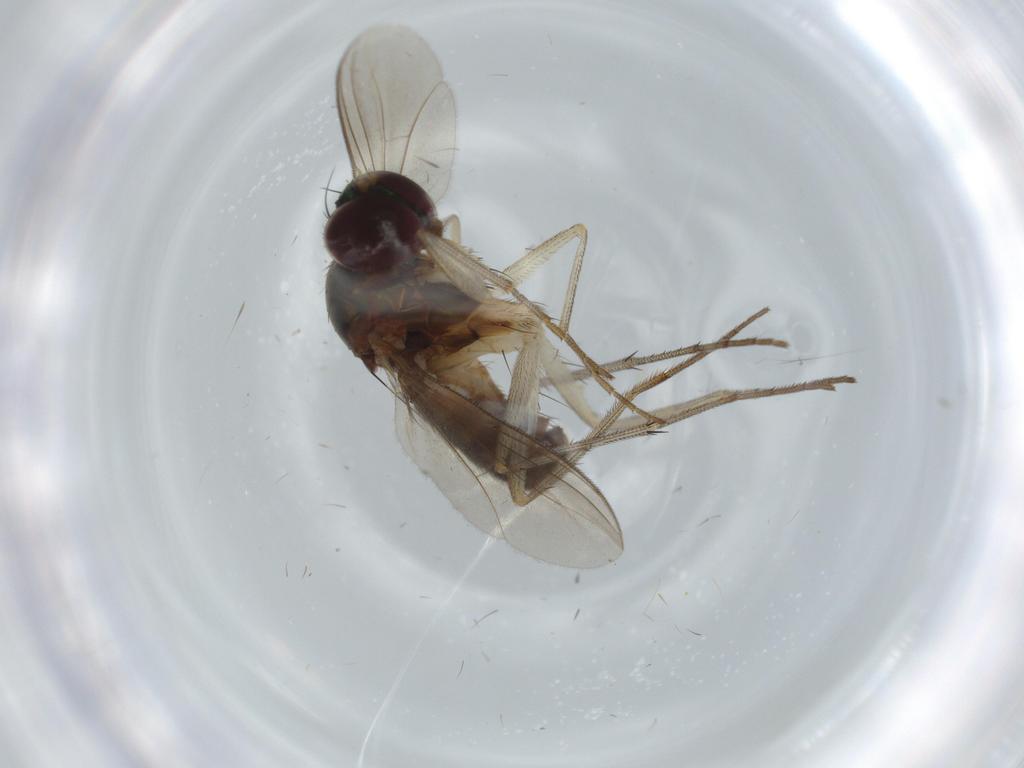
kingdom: Animalia
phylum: Arthropoda
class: Insecta
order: Diptera
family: Dolichopodidae
